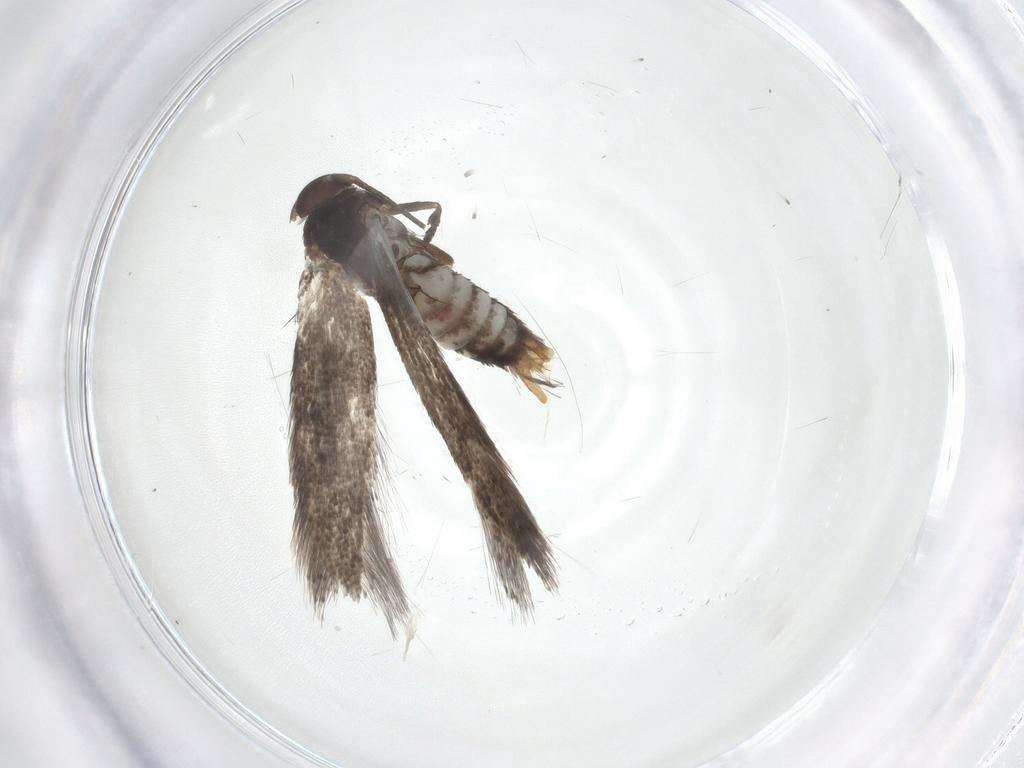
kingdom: Animalia
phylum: Arthropoda
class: Insecta
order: Lepidoptera
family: Elachistidae
